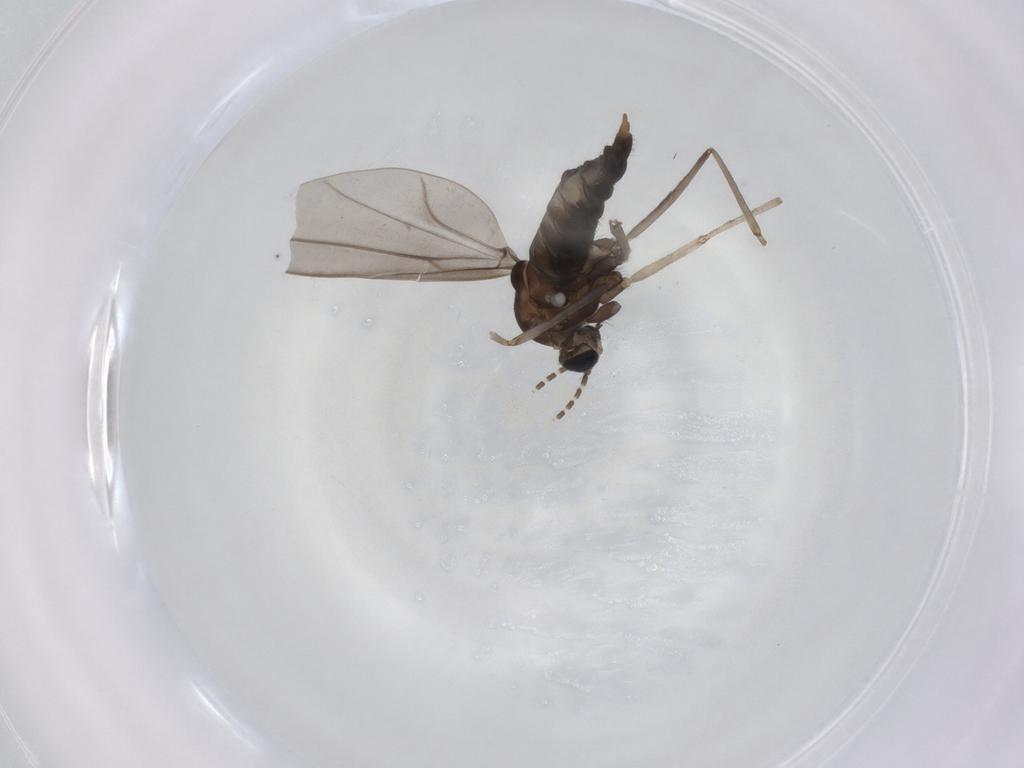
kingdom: Animalia
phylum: Arthropoda
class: Insecta
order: Diptera
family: Cecidomyiidae
